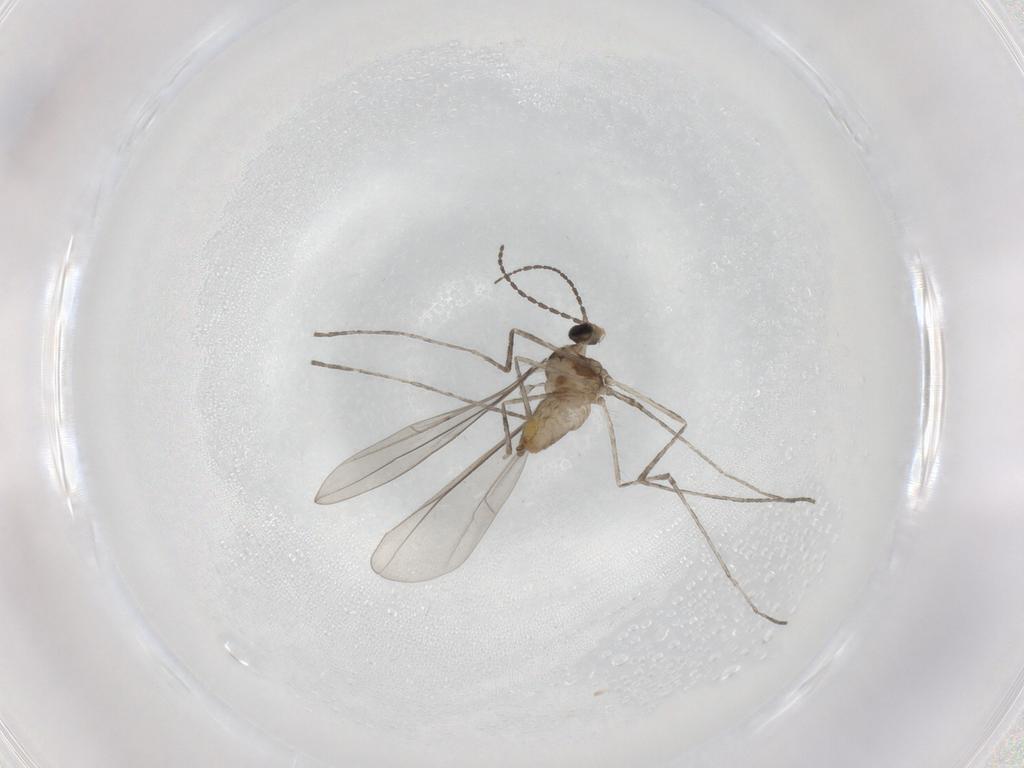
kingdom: Animalia
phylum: Arthropoda
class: Insecta
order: Diptera
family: Cecidomyiidae
